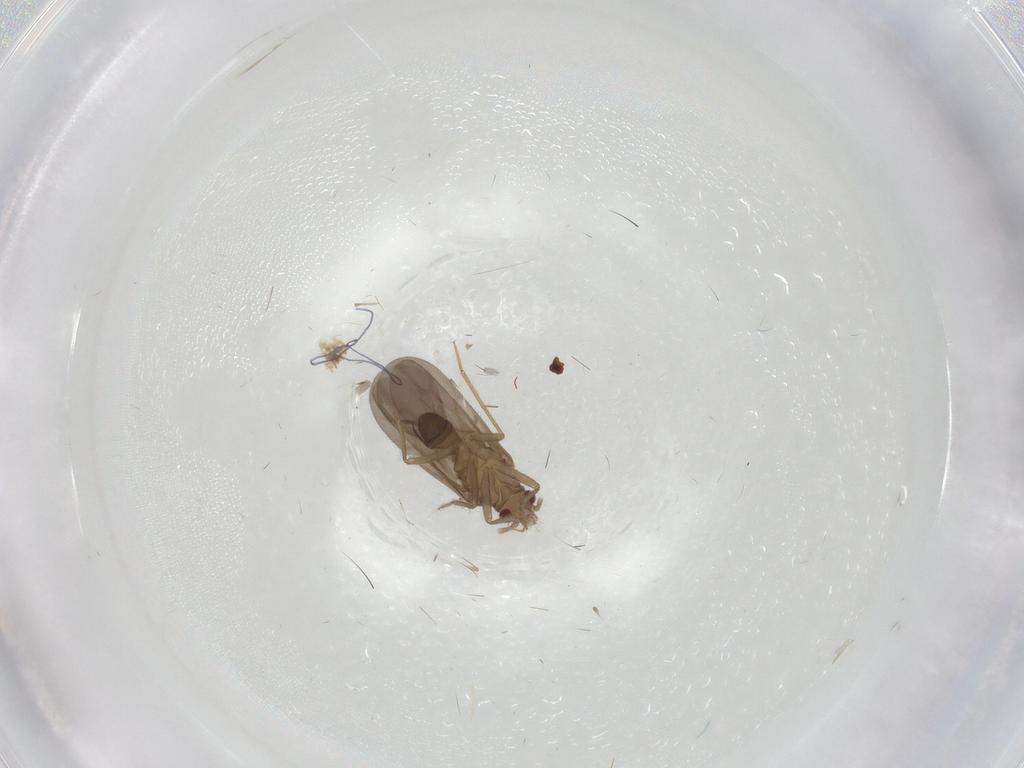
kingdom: Animalia
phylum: Arthropoda
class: Insecta
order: Diptera
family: Ceratopogonidae
